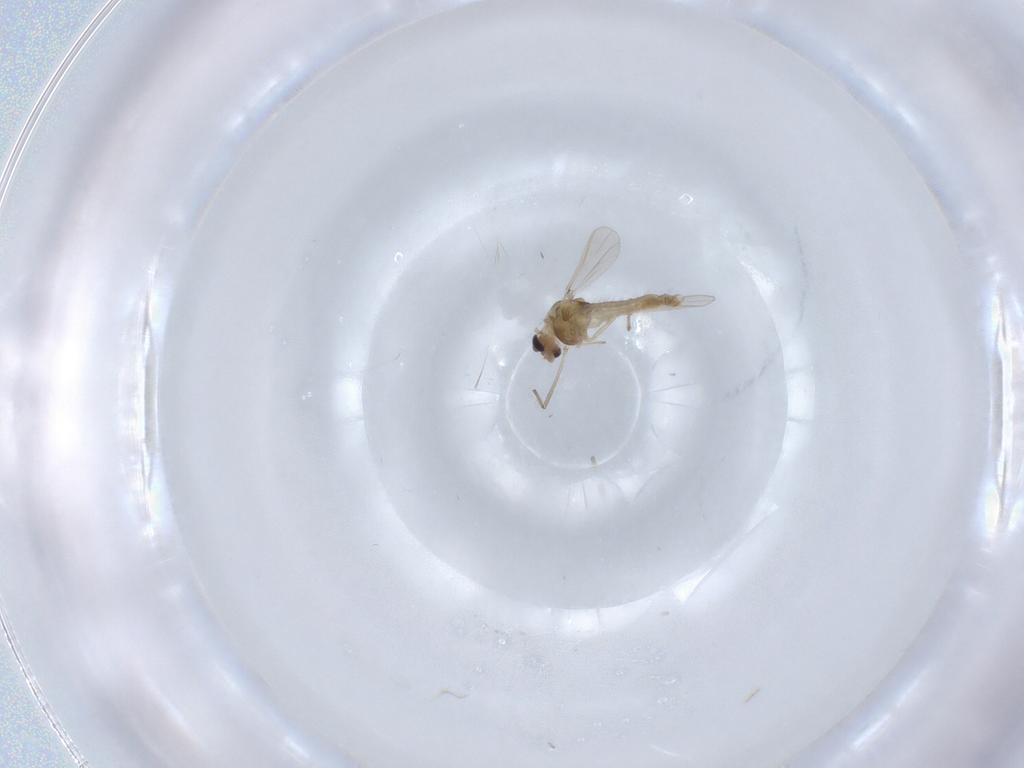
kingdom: Animalia
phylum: Arthropoda
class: Insecta
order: Diptera
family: Chironomidae
